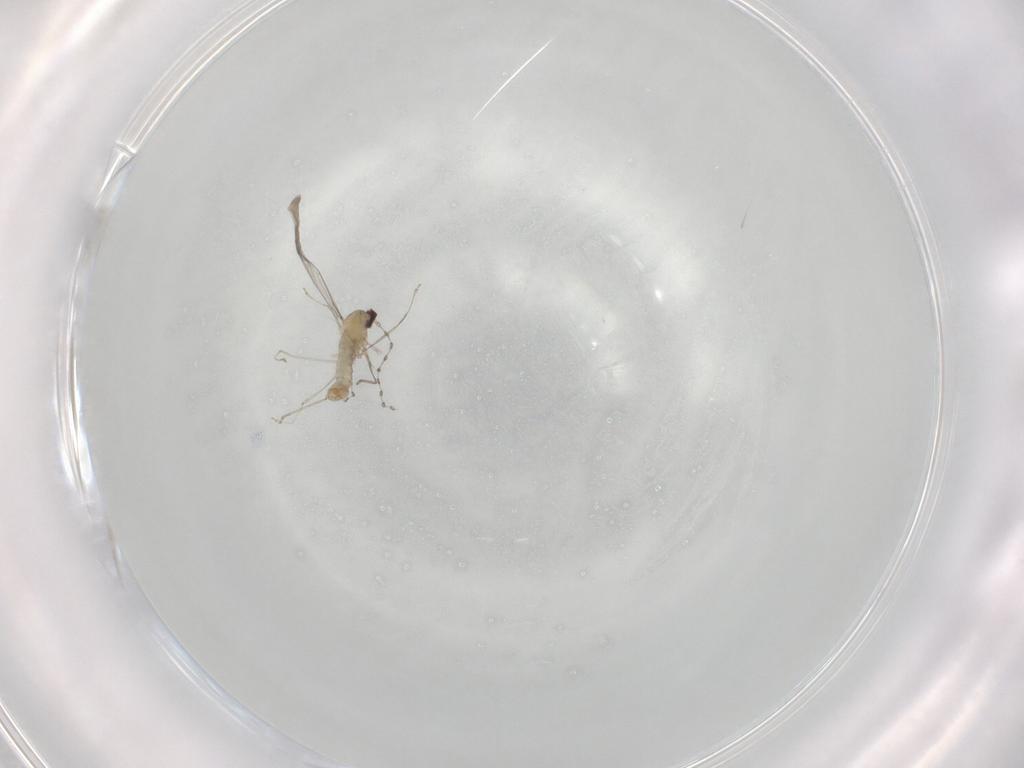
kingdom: Animalia
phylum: Arthropoda
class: Insecta
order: Diptera
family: Cecidomyiidae
